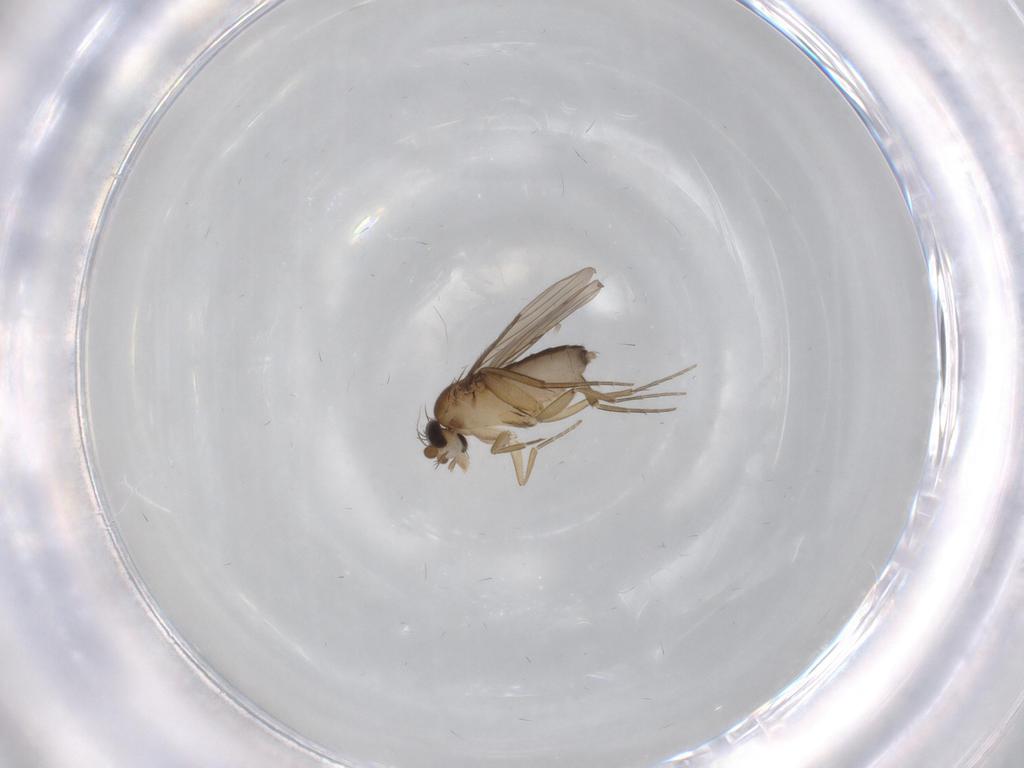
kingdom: Animalia
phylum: Arthropoda
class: Insecta
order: Diptera
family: Phoridae
